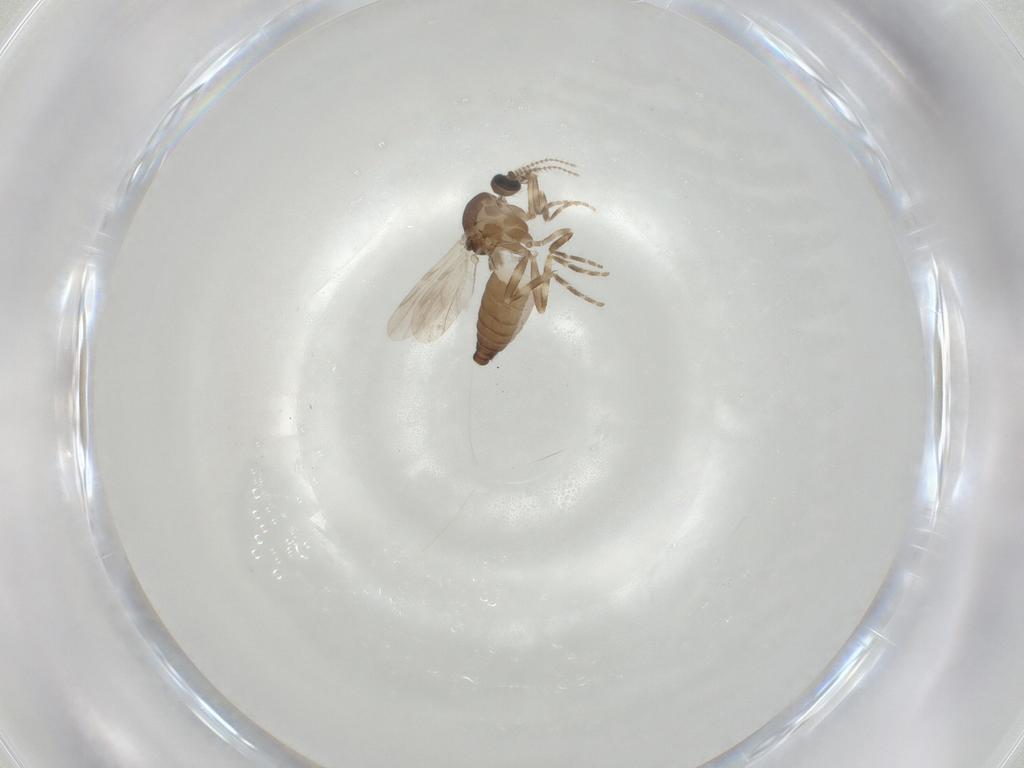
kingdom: Animalia
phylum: Arthropoda
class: Insecta
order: Diptera
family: Ceratopogonidae
